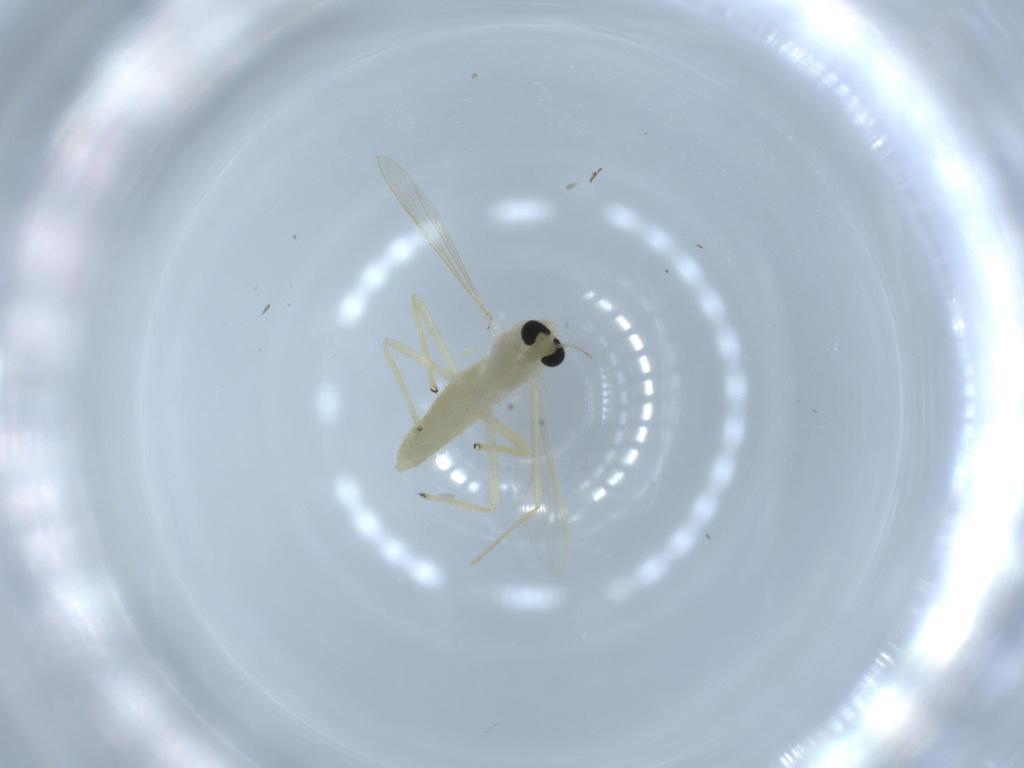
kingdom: Animalia
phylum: Arthropoda
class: Insecta
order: Diptera
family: Chironomidae
